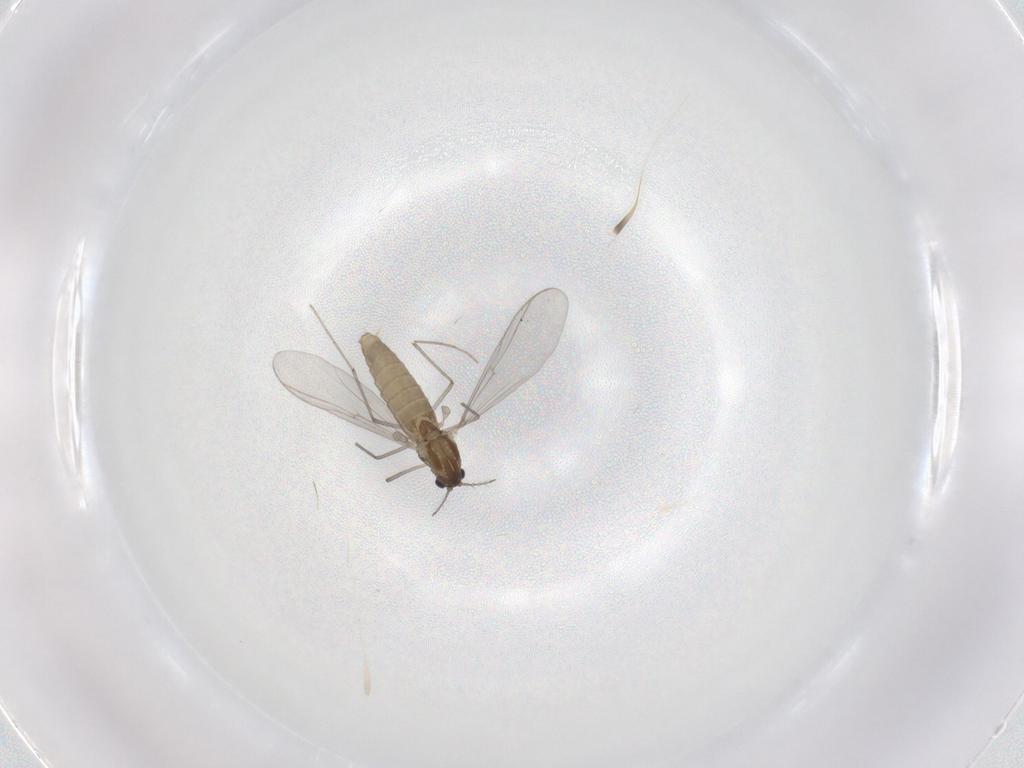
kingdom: Animalia
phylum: Arthropoda
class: Insecta
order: Diptera
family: Chironomidae
